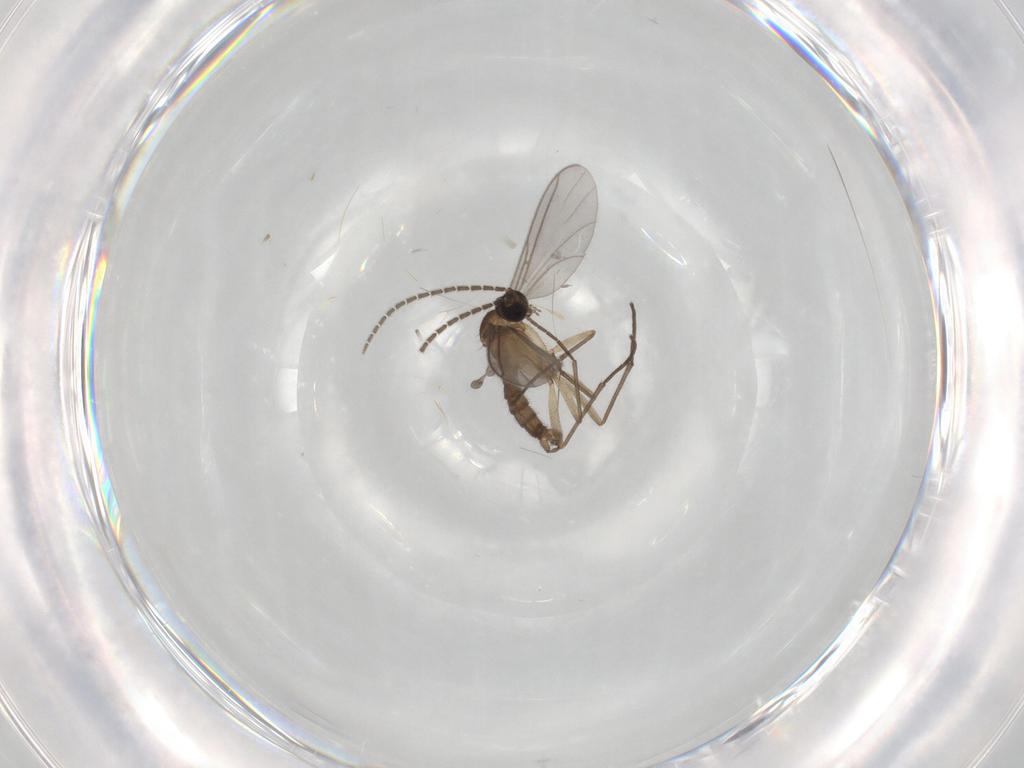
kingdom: Animalia
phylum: Arthropoda
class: Insecta
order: Diptera
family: Sciaridae
